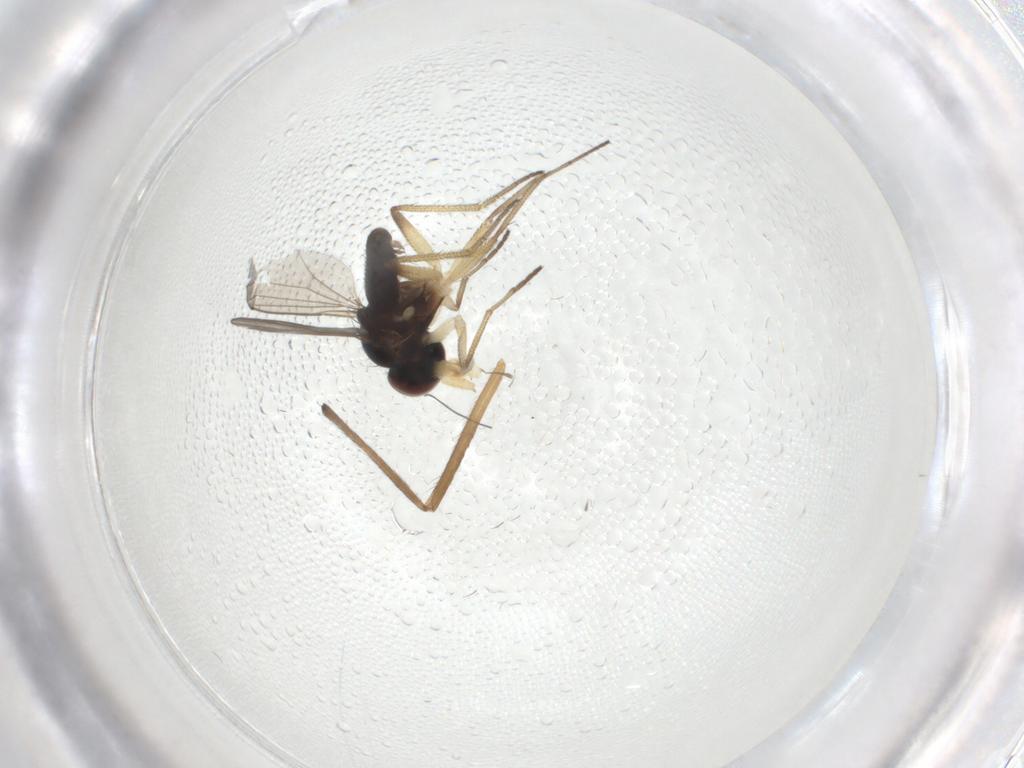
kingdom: Animalia
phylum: Arthropoda
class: Insecta
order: Diptera
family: Dolichopodidae
